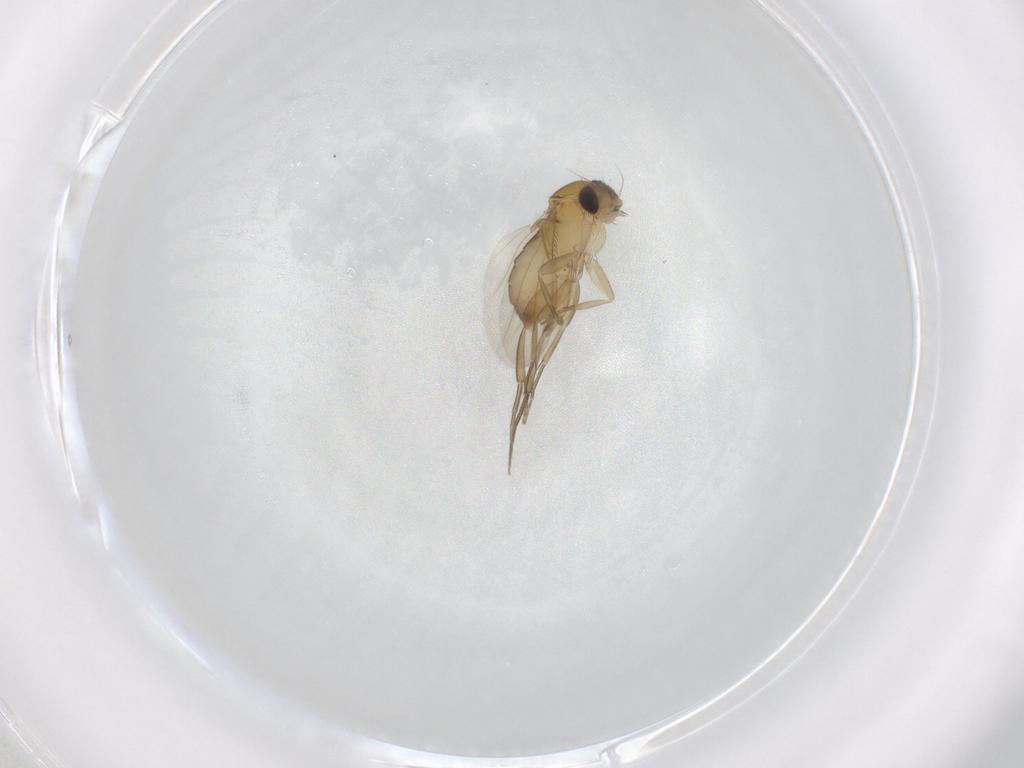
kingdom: Animalia
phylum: Arthropoda
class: Insecta
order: Diptera
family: Phoridae
